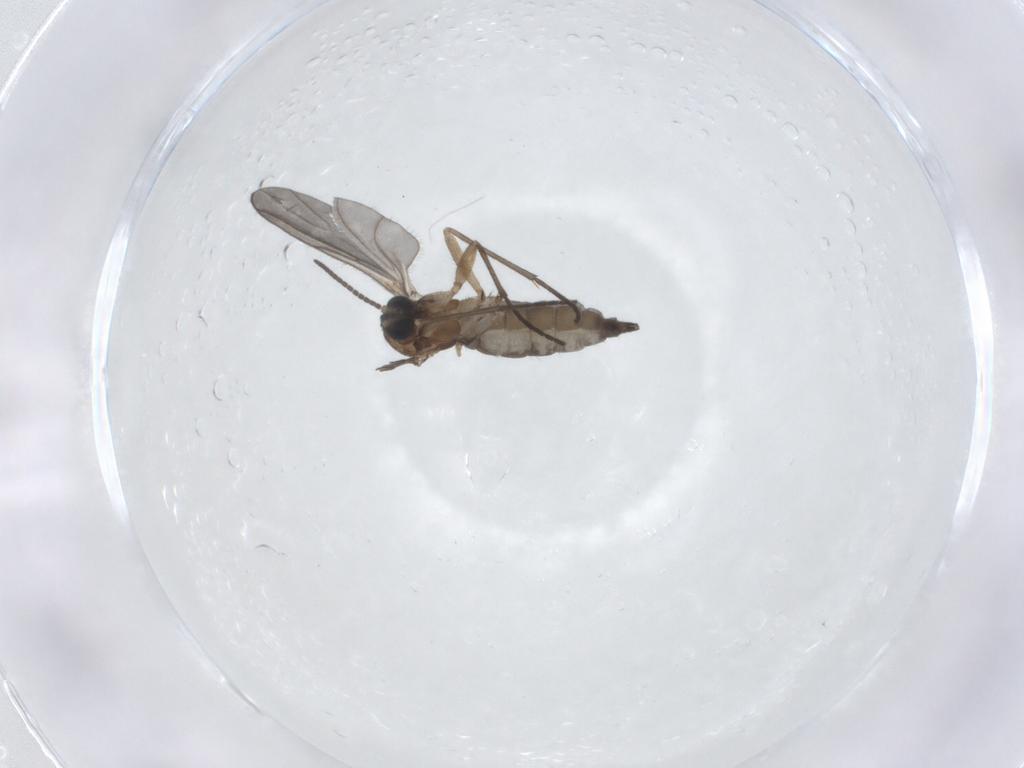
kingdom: Animalia
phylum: Arthropoda
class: Insecta
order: Diptera
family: Sciaridae
